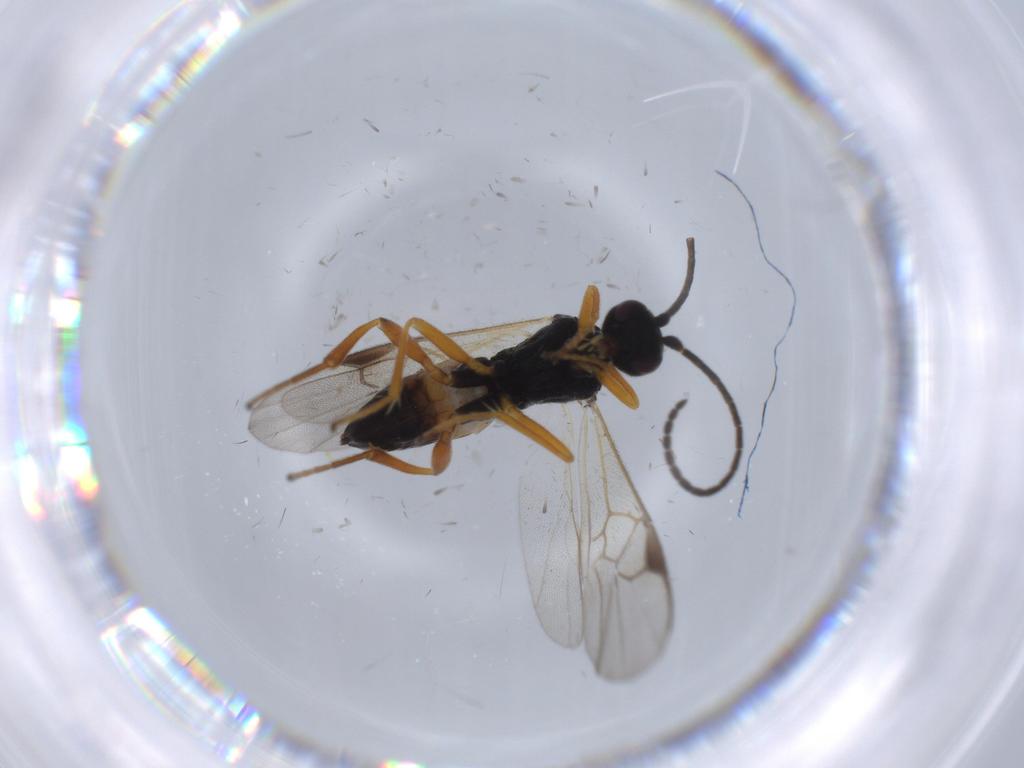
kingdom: Animalia
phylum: Arthropoda
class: Insecta
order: Hymenoptera
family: Braconidae
